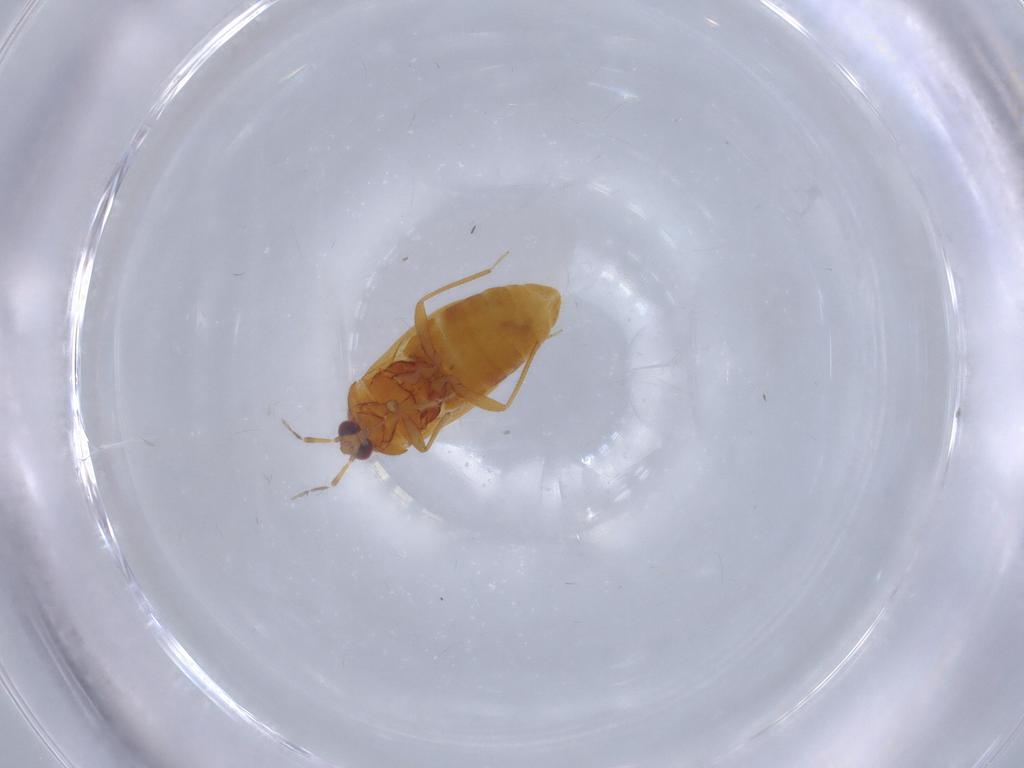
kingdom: Animalia
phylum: Arthropoda
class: Insecta
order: Hemiptera
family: Anthocoridae
